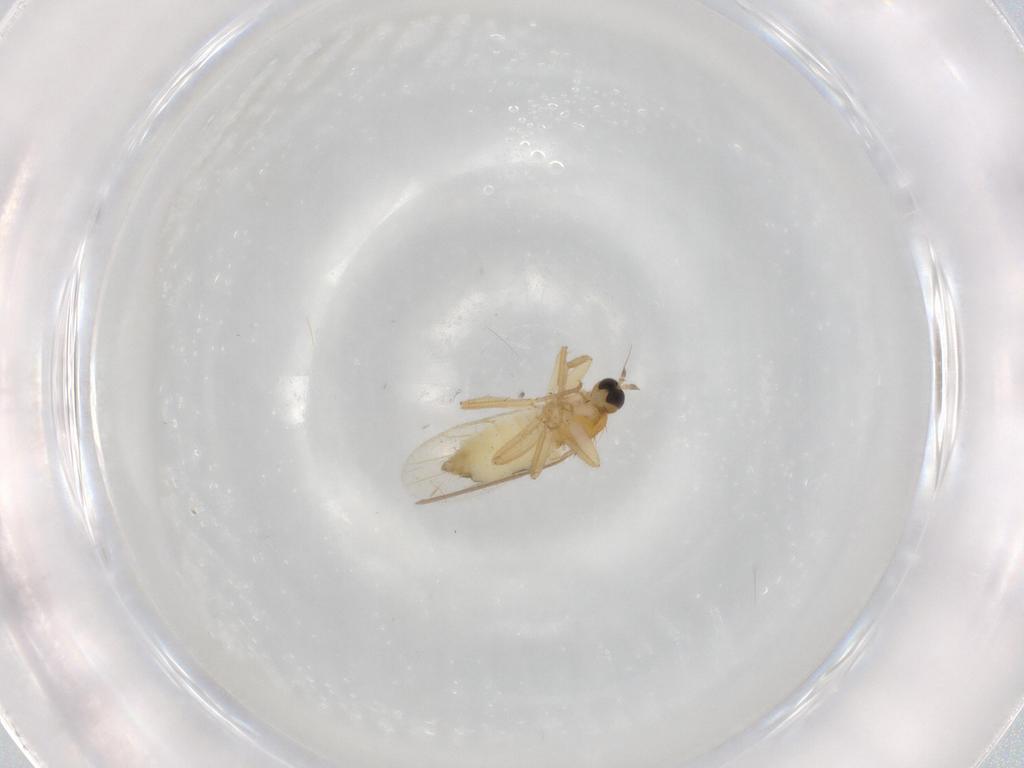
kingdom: Animalia
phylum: Arthropoda
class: Insecta
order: Diptera
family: Hybotidae
